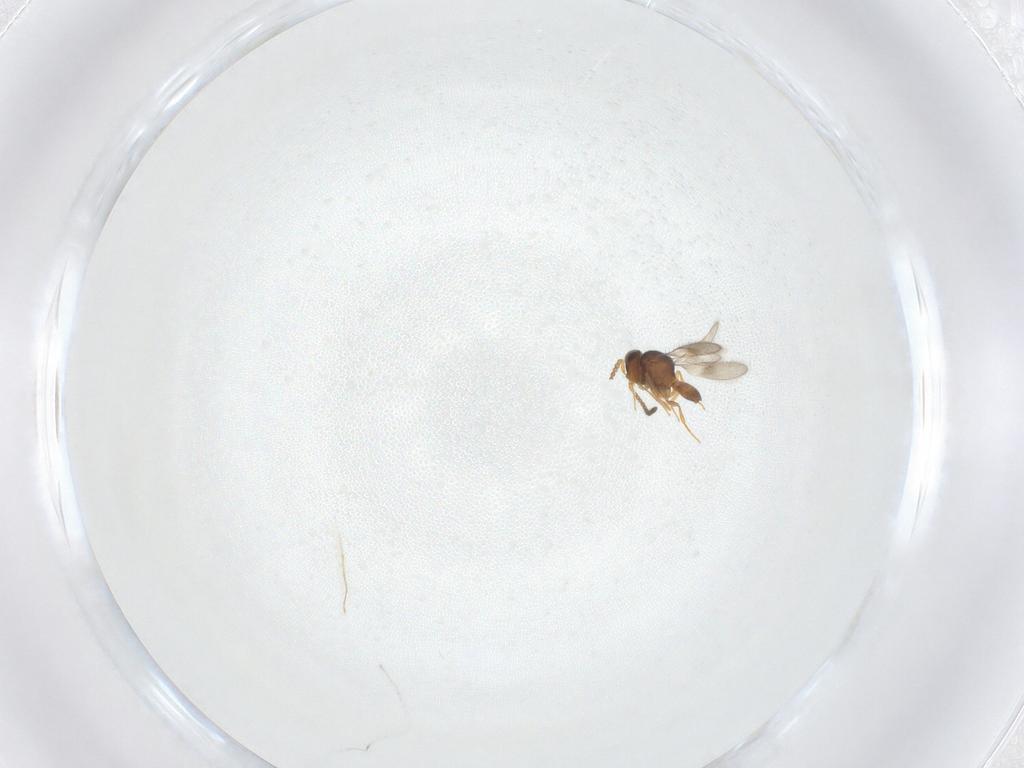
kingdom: Animalia
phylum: Arthropoda
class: Insecta
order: Hymenoptera
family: Scelionidae
